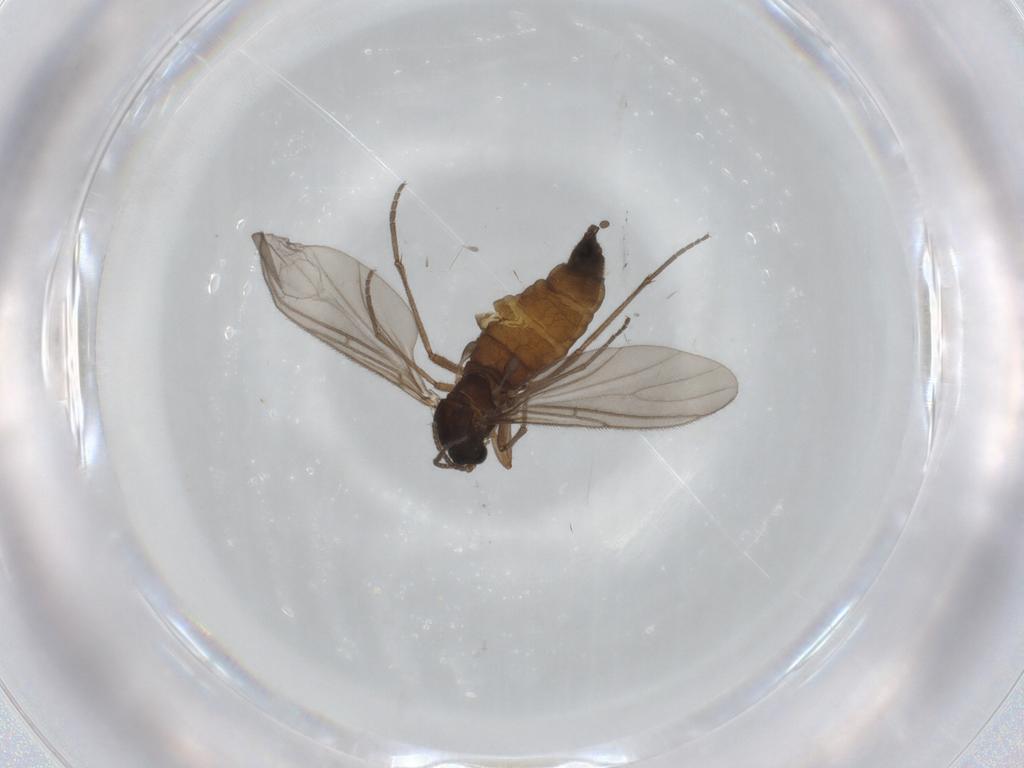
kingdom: Animalia
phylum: Arthropoda
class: Insecta
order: Diptera
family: Sciaridae
